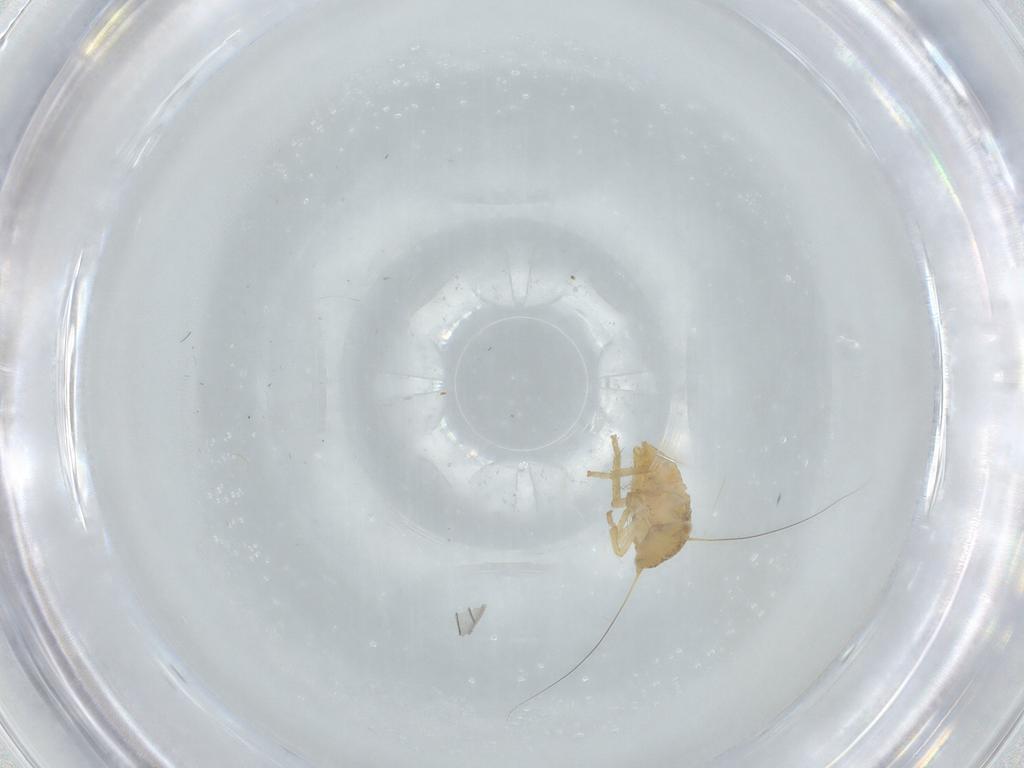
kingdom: Animalia
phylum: Arthropoda
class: Insecta
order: Hemiptera
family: Cicadellidae
